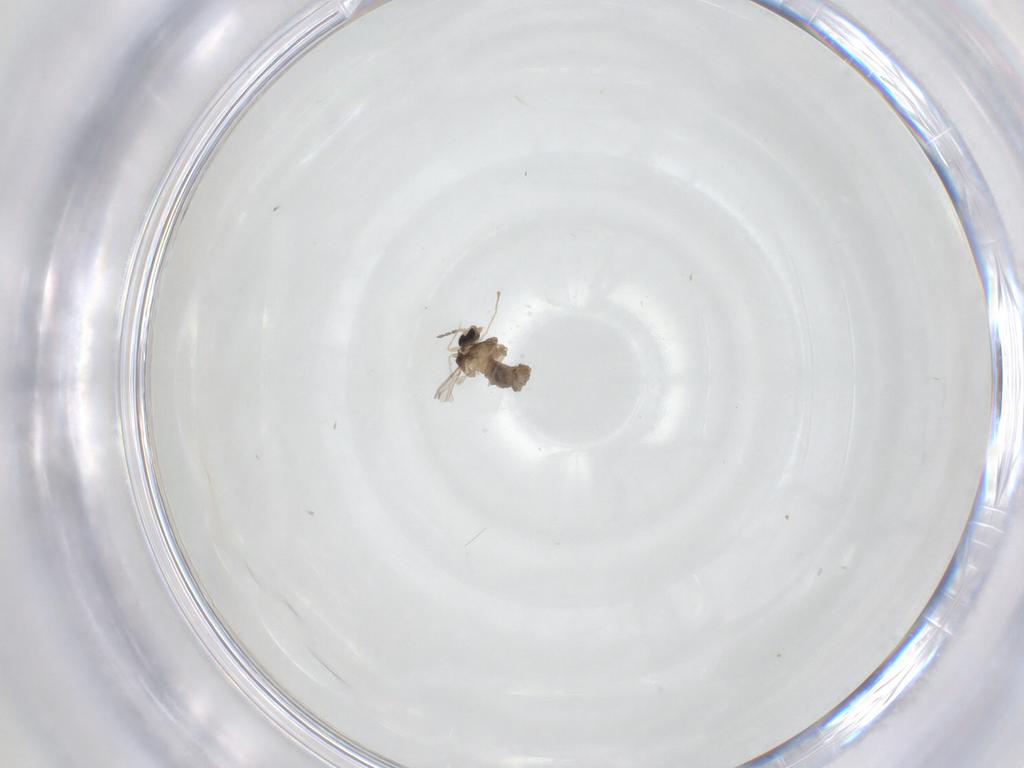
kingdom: Animalia
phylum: Arthropoda
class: Insecta
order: Diptera
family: Cecidomyiidae
